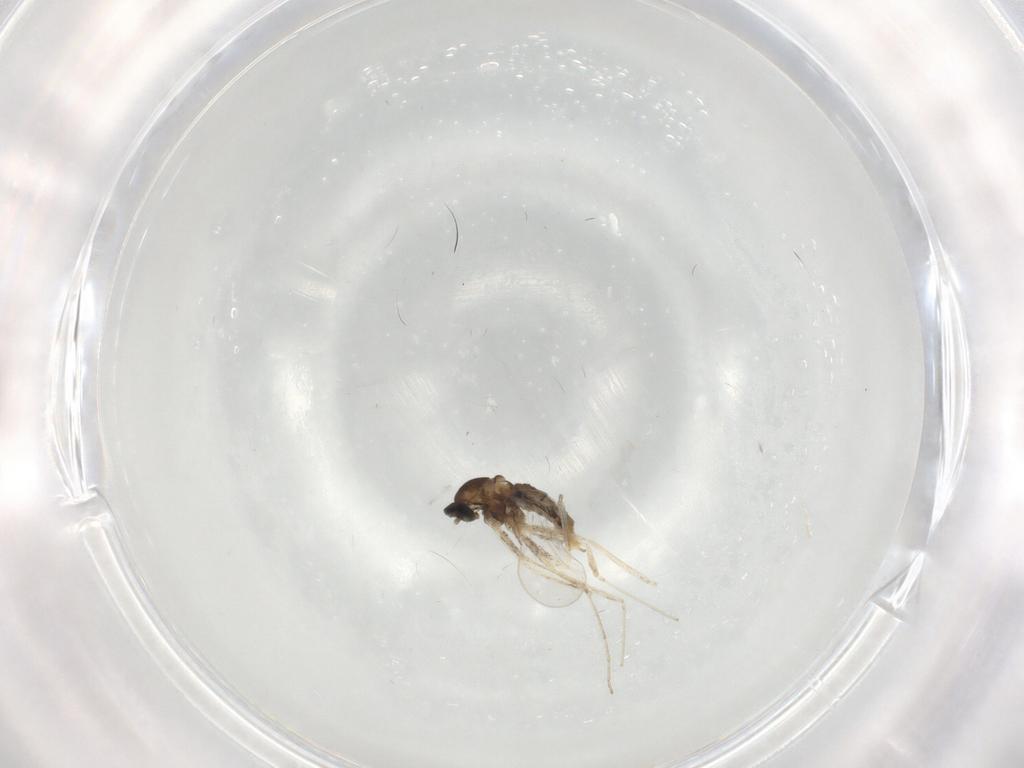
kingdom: Animalia
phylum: Arthropoda
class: Insecta
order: Diptera
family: Cecidomyiidae
